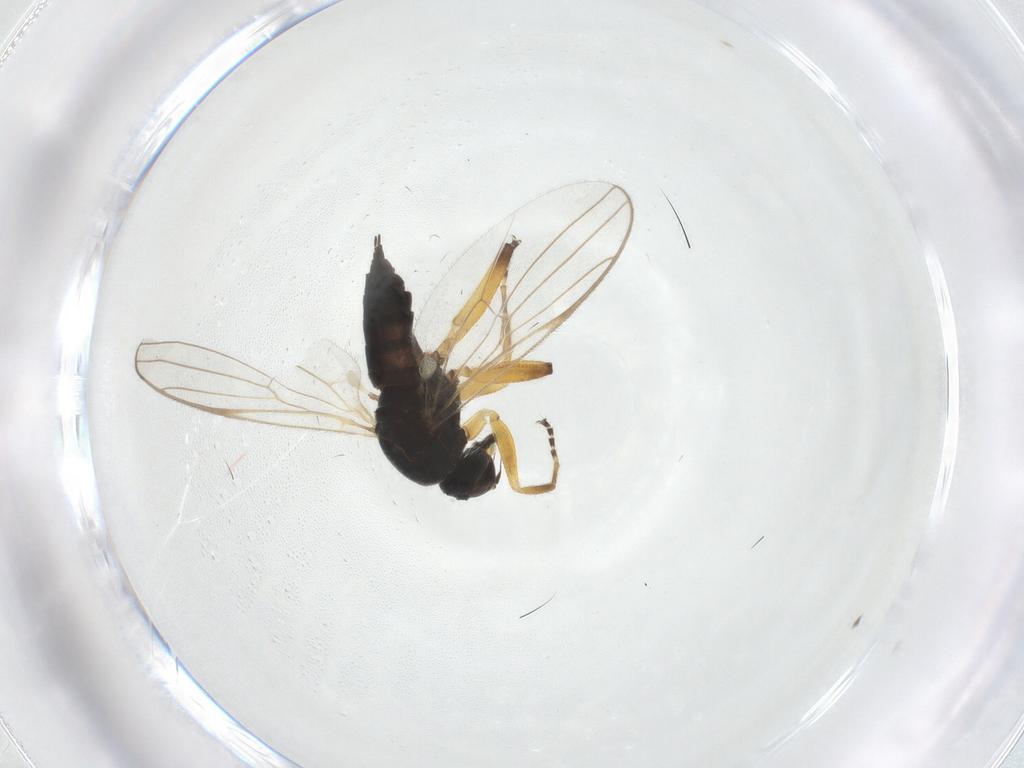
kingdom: Animalia
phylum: Arthropoda
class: Insecta
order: Diptera
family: Hybotidae
